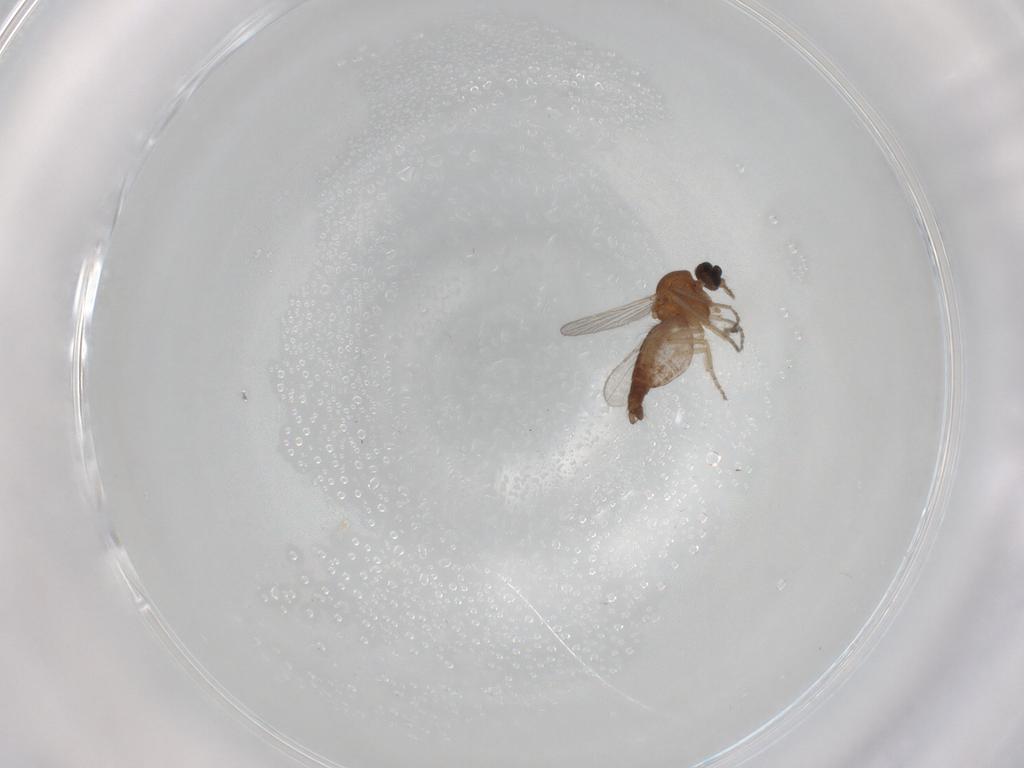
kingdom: Animalia
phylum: Arthropoda
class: Insecta
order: Diptera
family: Ceratopogonidae
